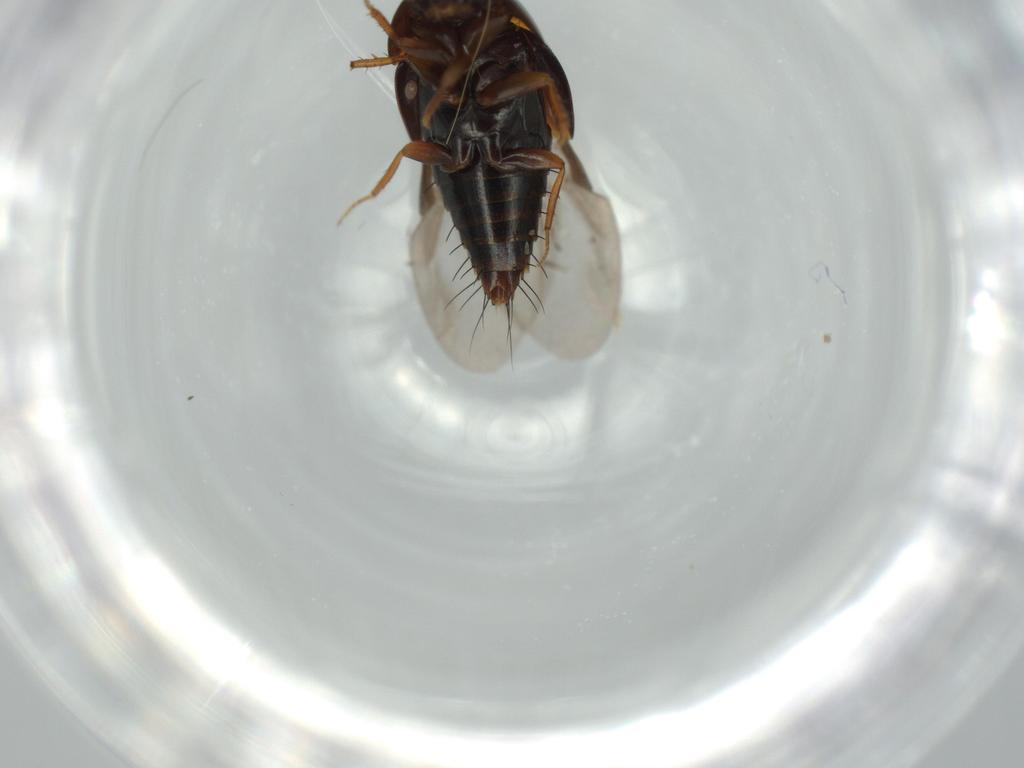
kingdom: Animalia
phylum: Arthropoda
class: Insecta
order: Coleoptera
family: Staphylinidae
